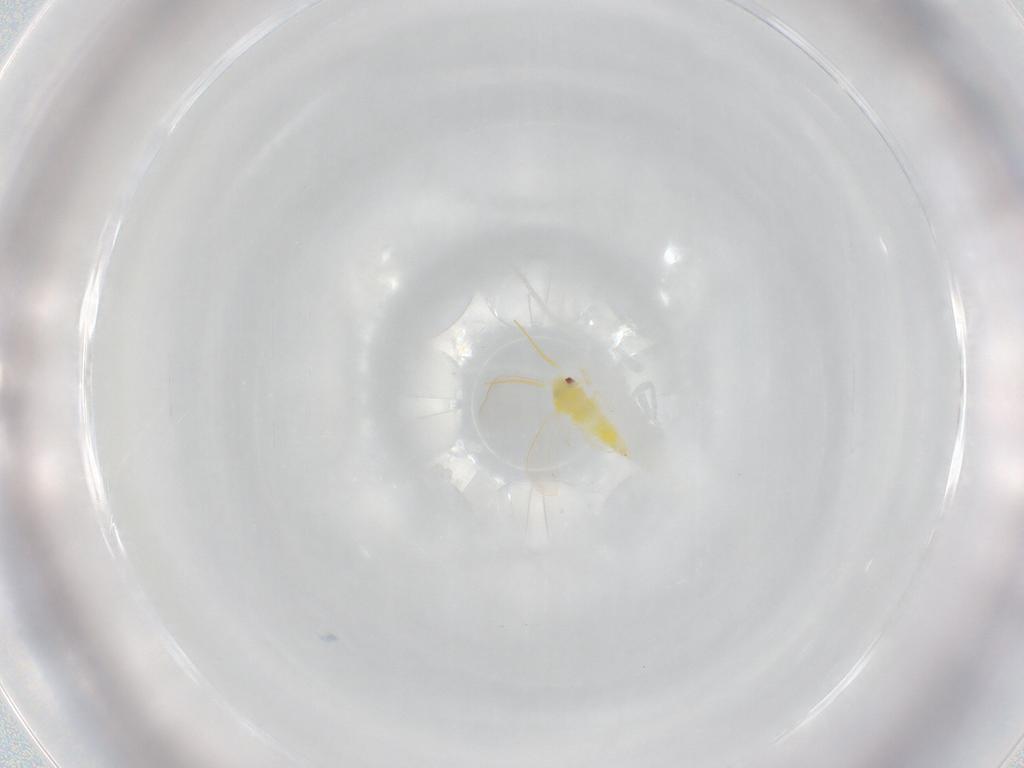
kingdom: Animalia
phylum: Arthropoda
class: Insecta
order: Hemiptera
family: Aleyrodidae
